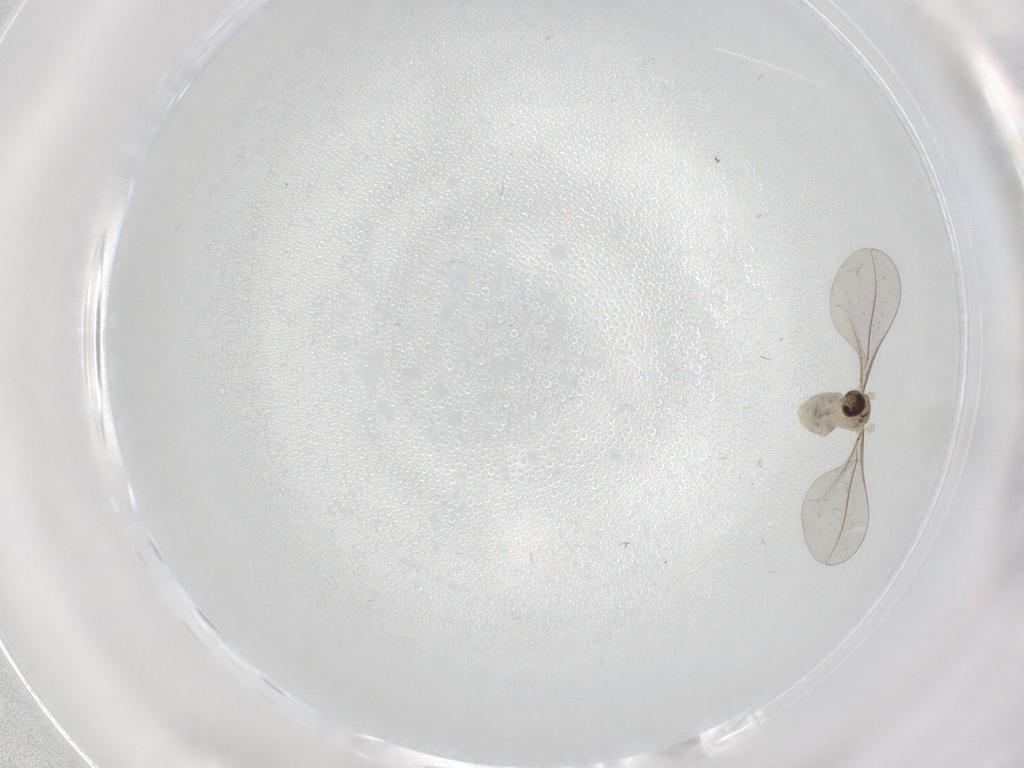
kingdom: Animalia
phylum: Arthropoda
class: Insecta
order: Diptera
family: Cecidomyiidae
